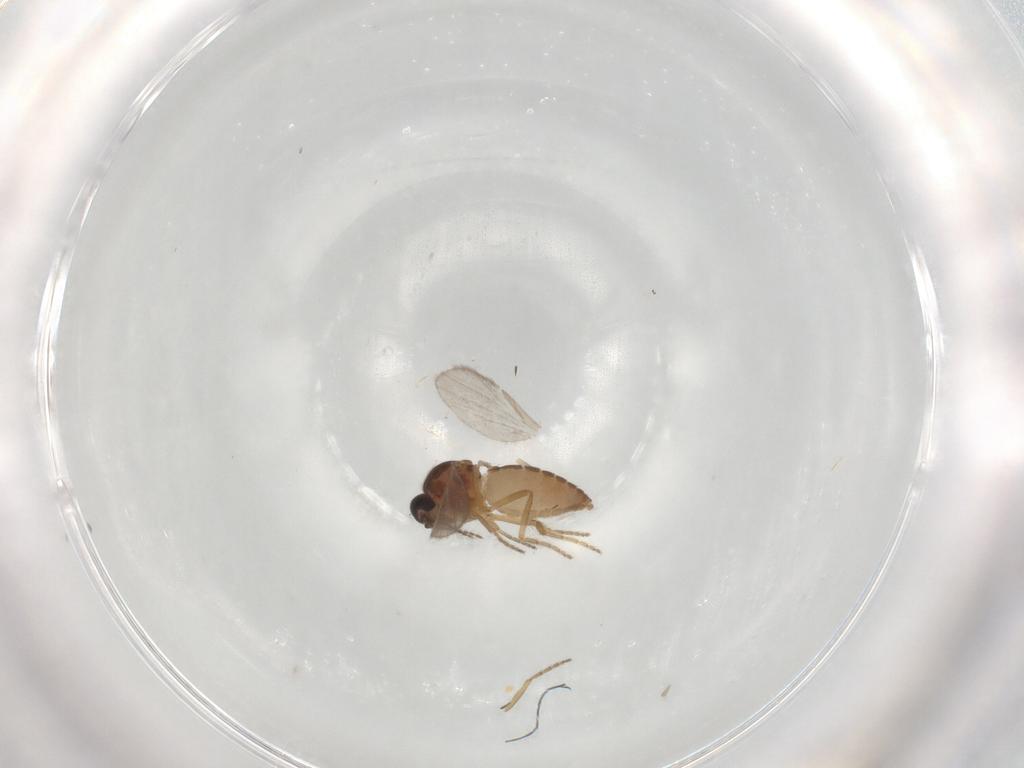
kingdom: Animalia
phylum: Arthropoda
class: Insecta
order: Diptera
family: Ceratopogonidae
